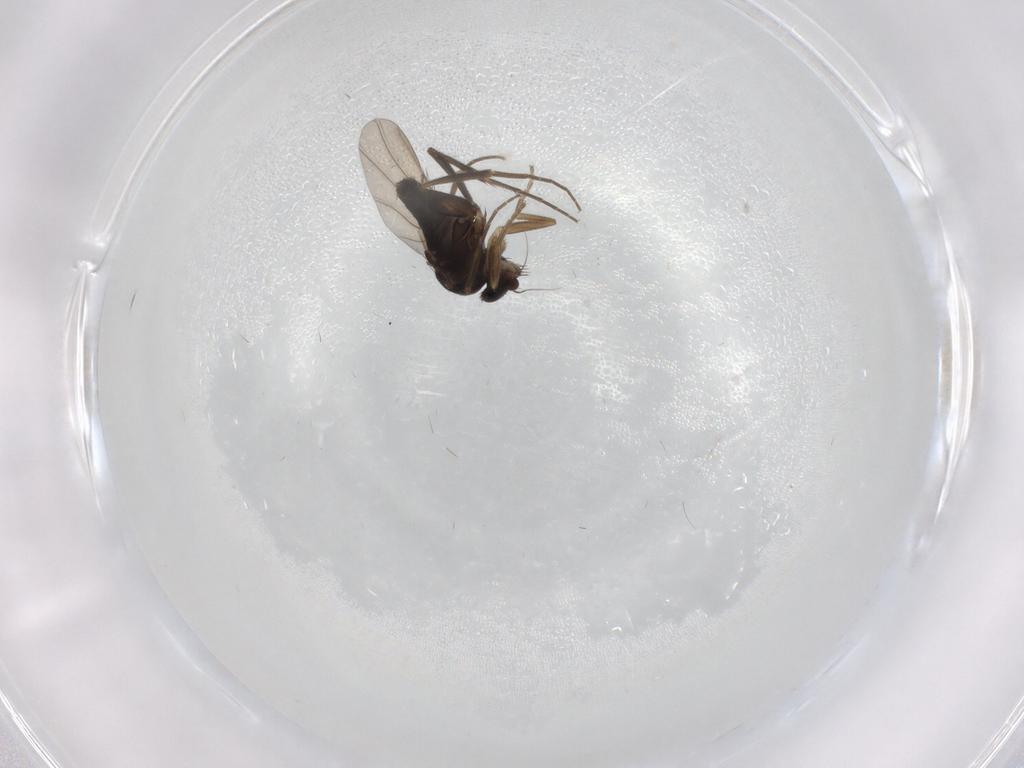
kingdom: Animalia
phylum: Arthropoda
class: Insecta
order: Diptera
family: Phoridae
